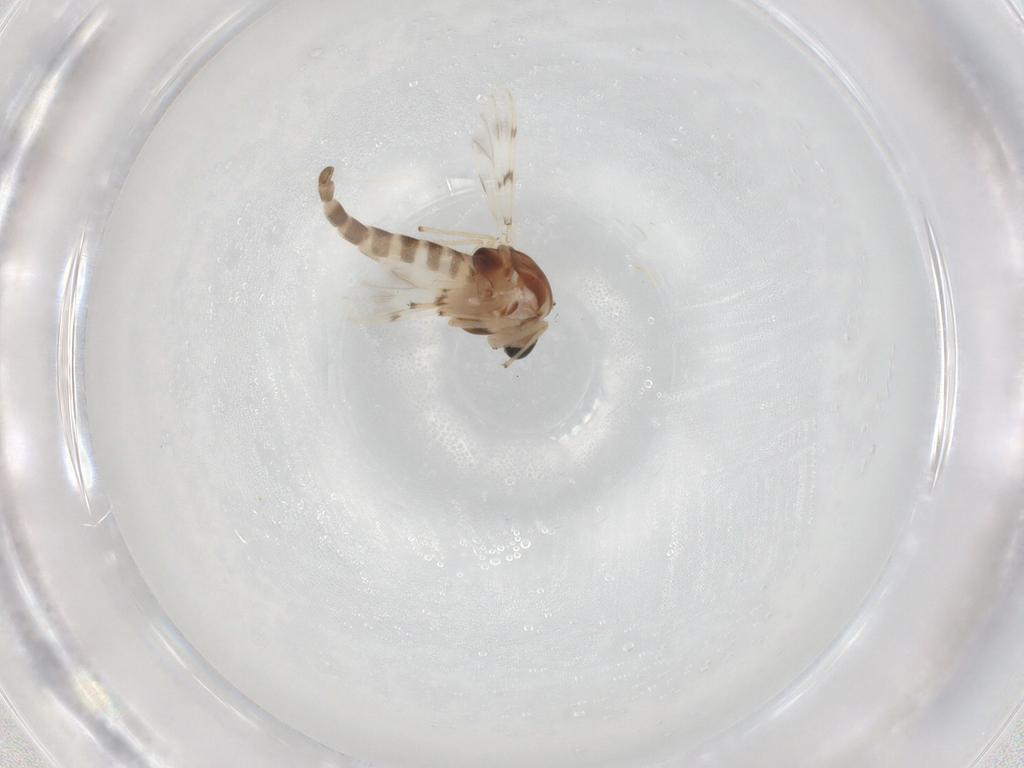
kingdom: Animalia
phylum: Arthropoda
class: Insecta
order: Diptera
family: Chironomidae
